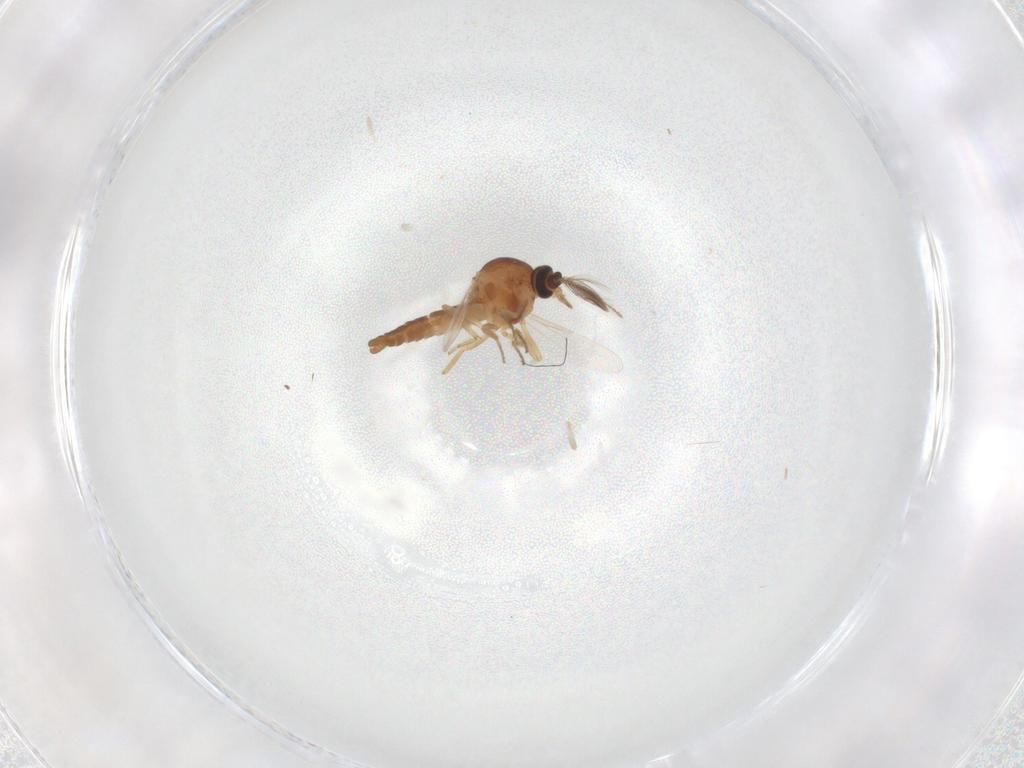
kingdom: Animalia
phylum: Arthropoda
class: Insecta
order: Diptera
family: Ceratopogonidae
